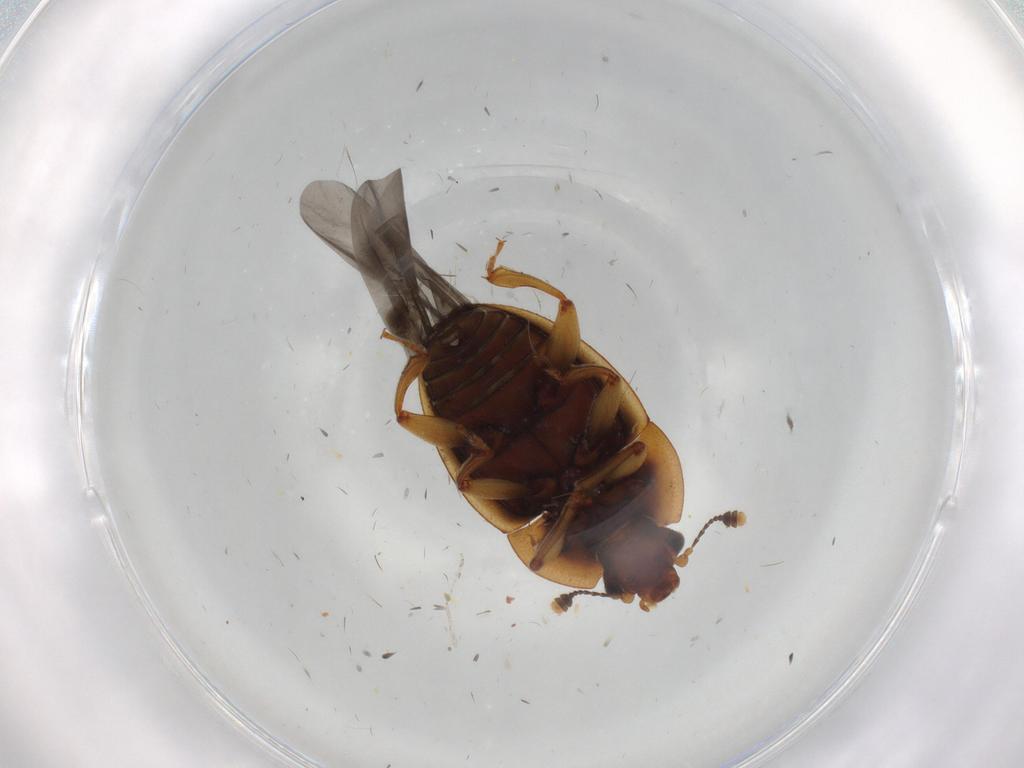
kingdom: Animalia
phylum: Arthropoda
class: Insecta
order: Coleoptera
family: Nitidulidae
